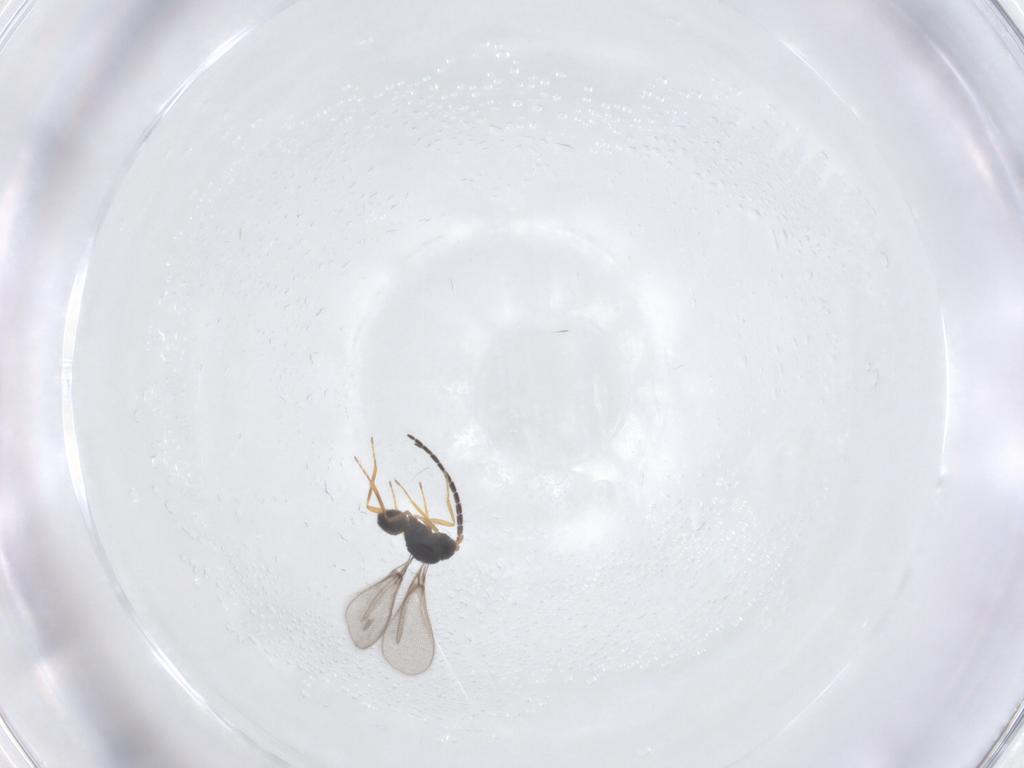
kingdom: Animalia
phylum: Arthropoda
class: Insecta
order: Hymenoptera
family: Mymaridae
